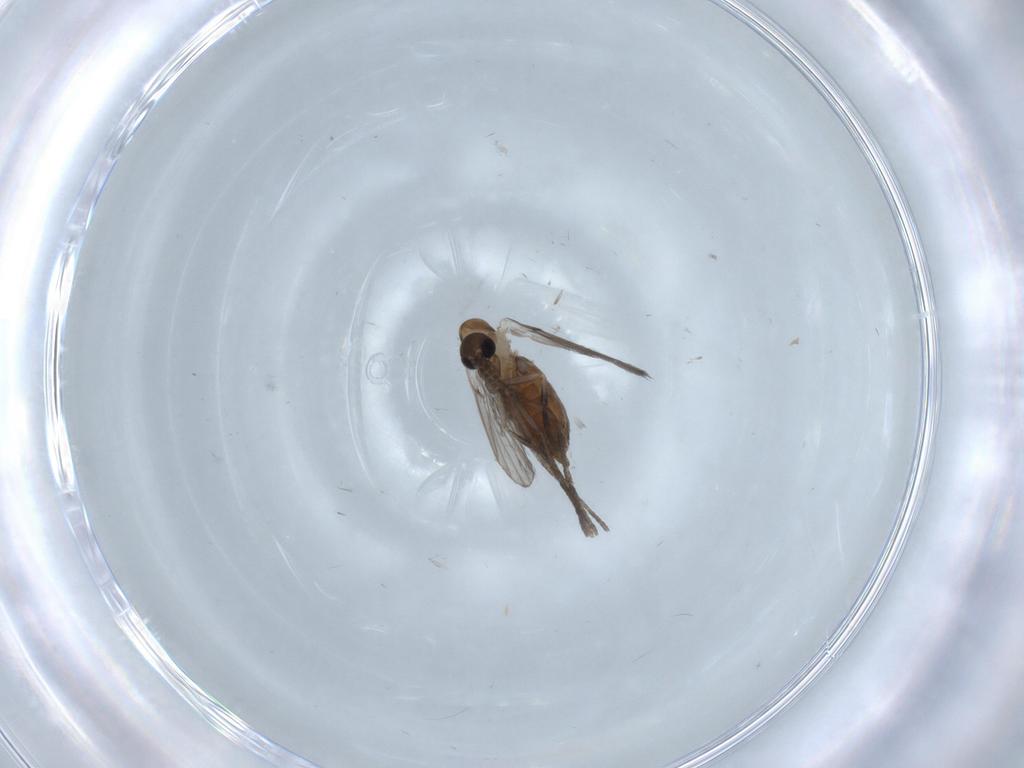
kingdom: Animalia
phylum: Arthropoda
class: Insecta
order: Diptera
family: Psychodidae
